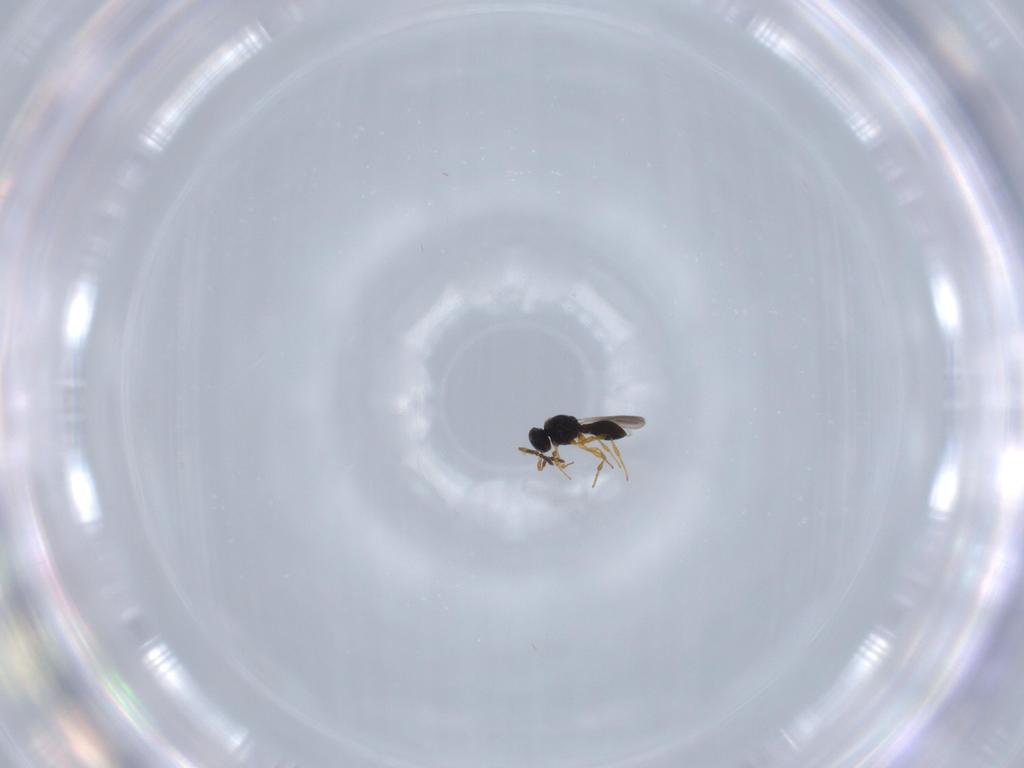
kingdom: Animalia
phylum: Arthropoda
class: Insecta
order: Hymenoptera
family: Platygastridae
